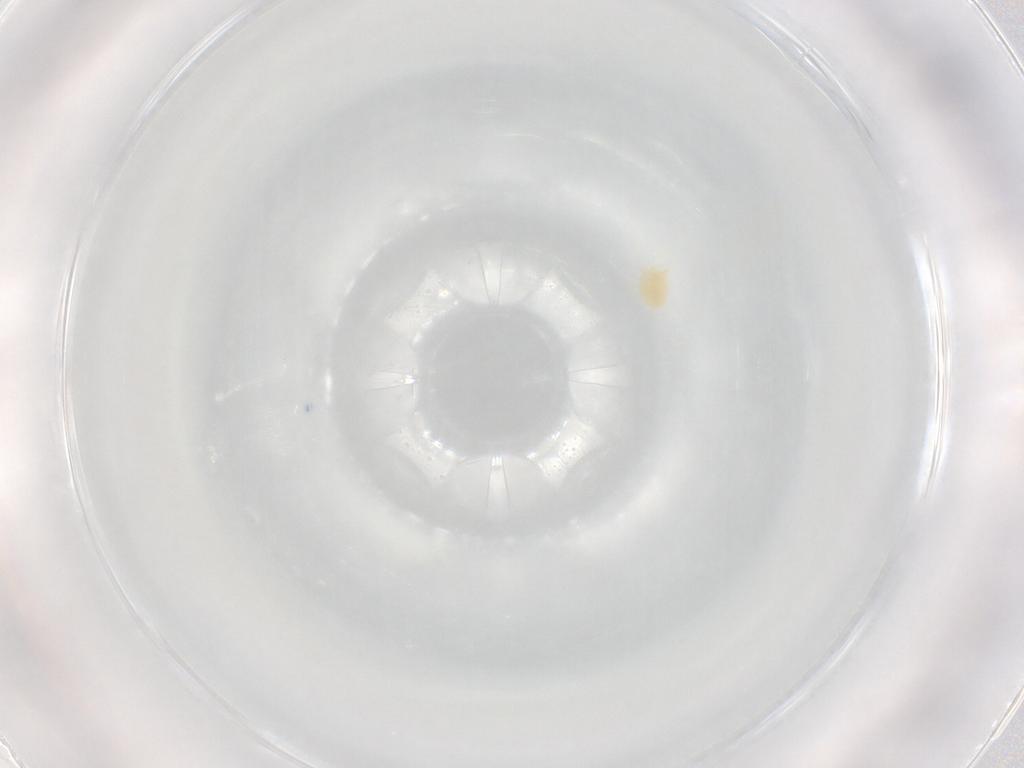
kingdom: Animalia
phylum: Arthropoda
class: Arachnida
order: Trombidiformes
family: Tetranychidae
